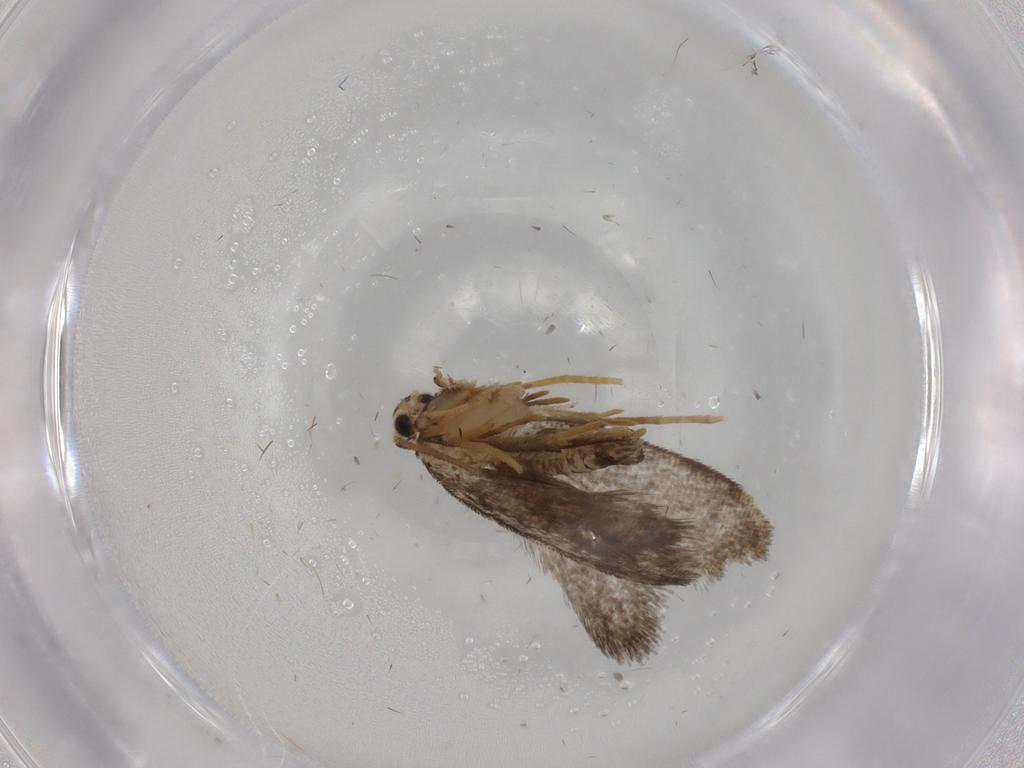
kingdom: Animalia
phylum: Arthropoda
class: Insecta
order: Lepidoptera
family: Psychidae
